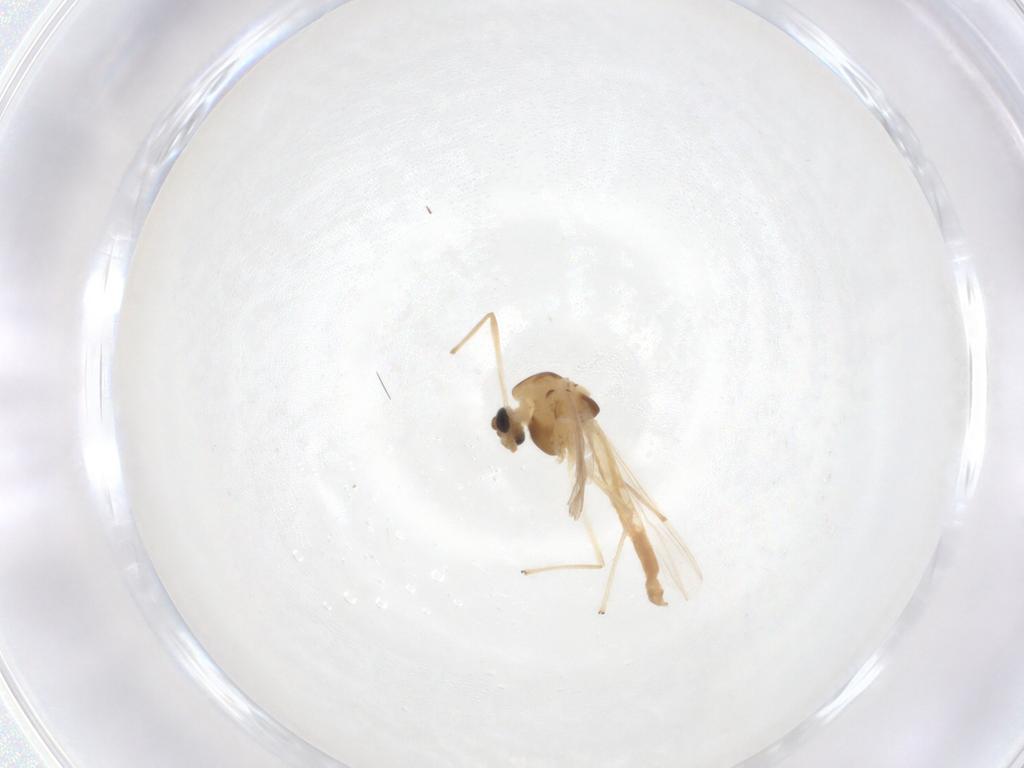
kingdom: Animalia
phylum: Arthropoda
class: Insecta
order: Diptera
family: Chironomidae
